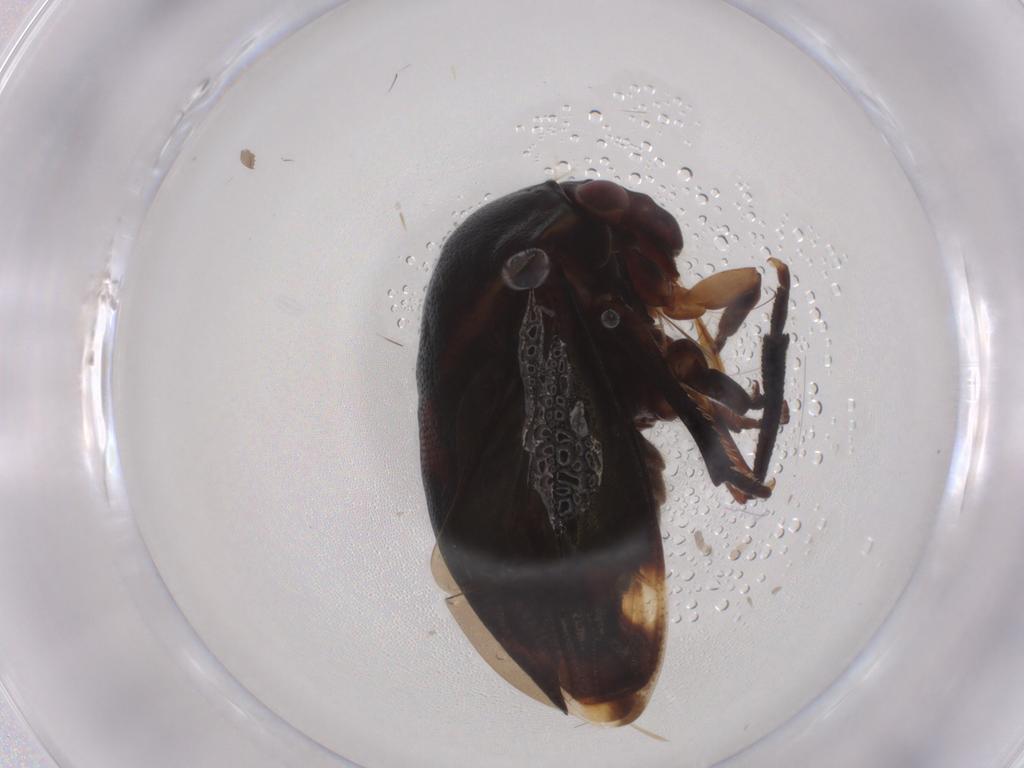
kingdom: Animalia
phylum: Arthropoda
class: Insecta
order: Hemiptera
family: Membracidae
